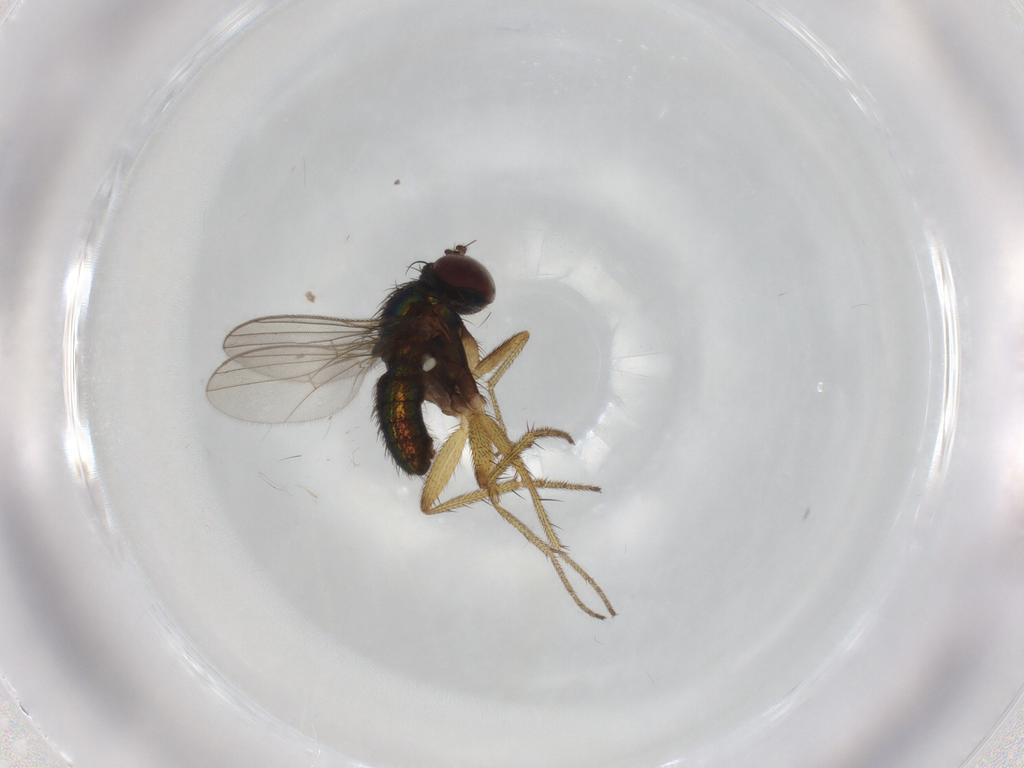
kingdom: Animalia
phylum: Arthropoda
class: Insecta
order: Diptera
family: Dolichopodidae
